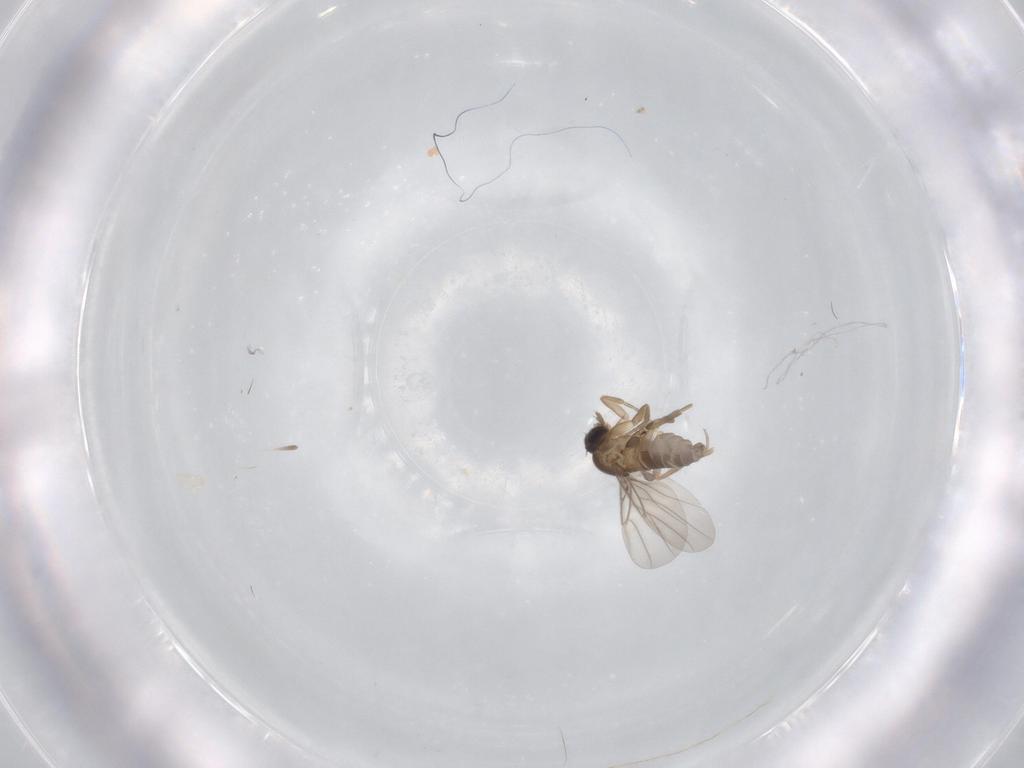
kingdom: Animalia
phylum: Arthropoda
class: Insecta
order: Diptera
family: Phoridae
